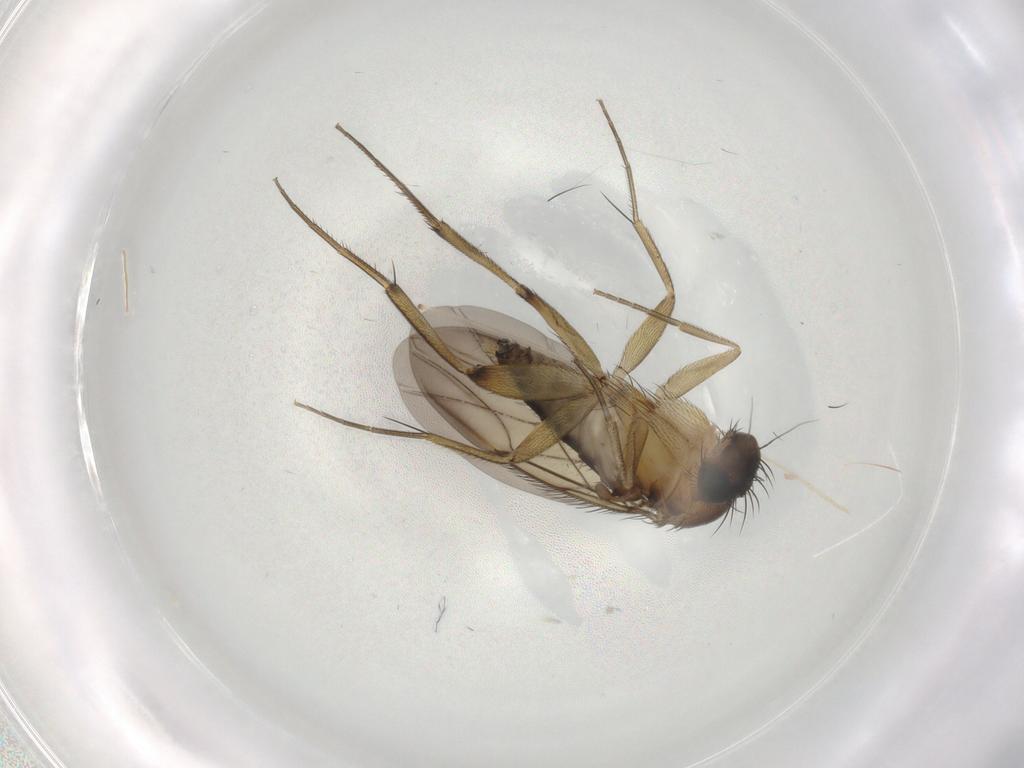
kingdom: Animalia
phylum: Arthropoda
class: Insecta
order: Diptera
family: Phoridae
